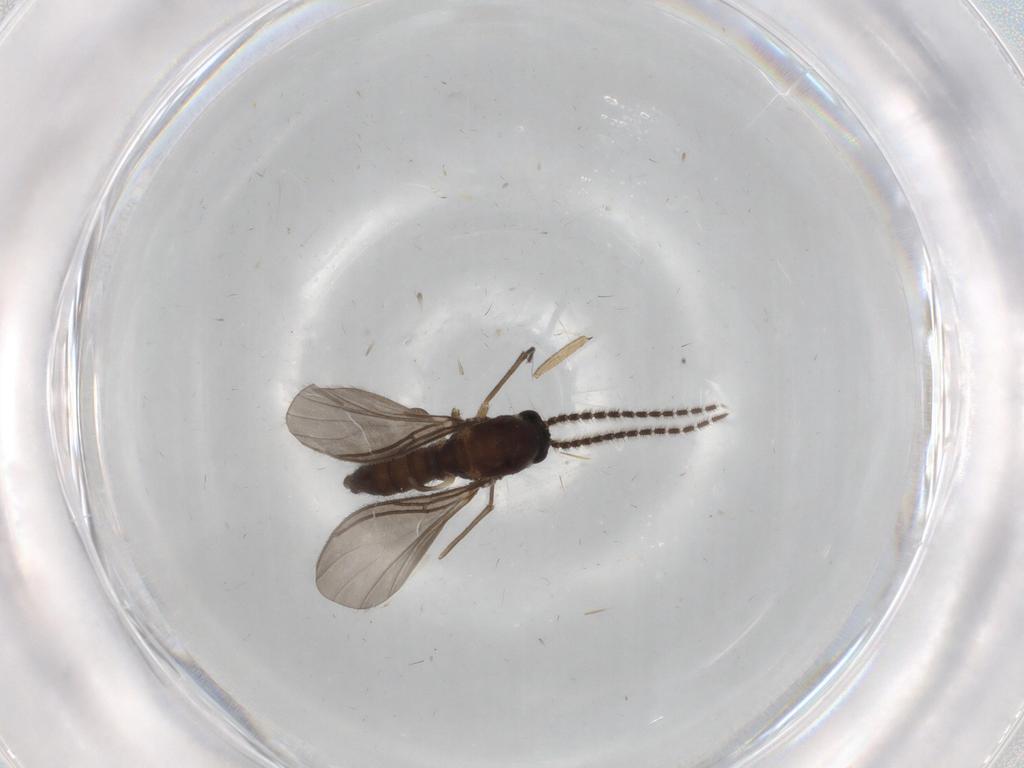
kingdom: Animalia
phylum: Arthropoda
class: Insecta
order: Diptera
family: Sciaridae
